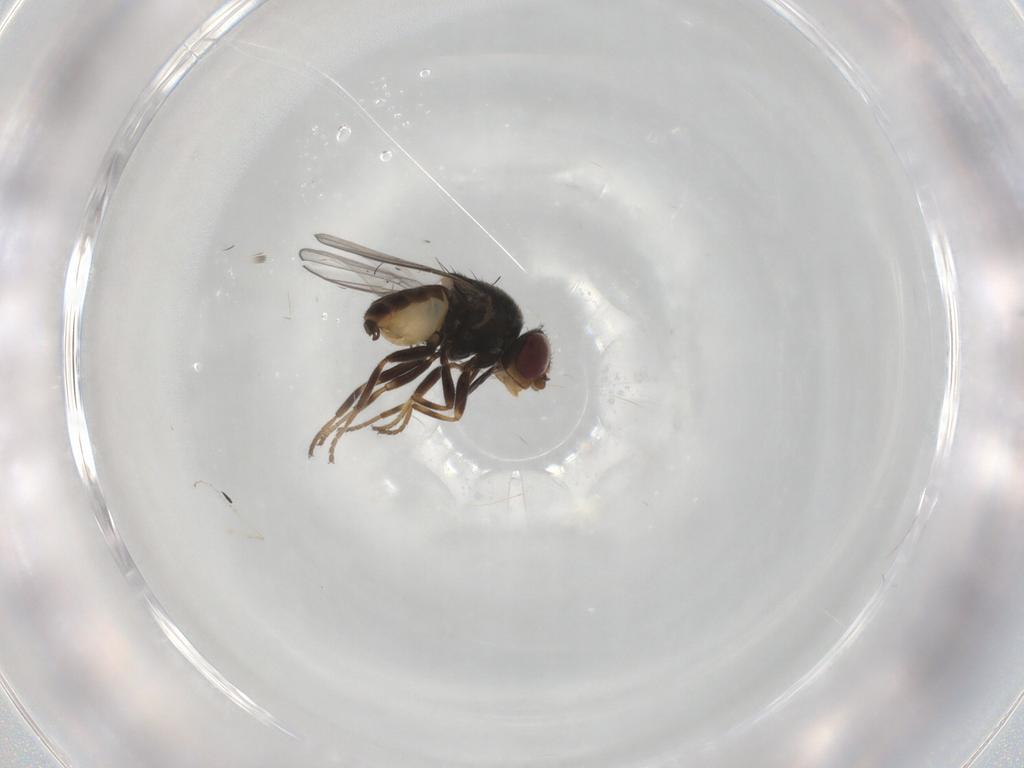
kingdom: Animalia
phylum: Arthropoda
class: Insecta
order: Diptera
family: Chloropidae
